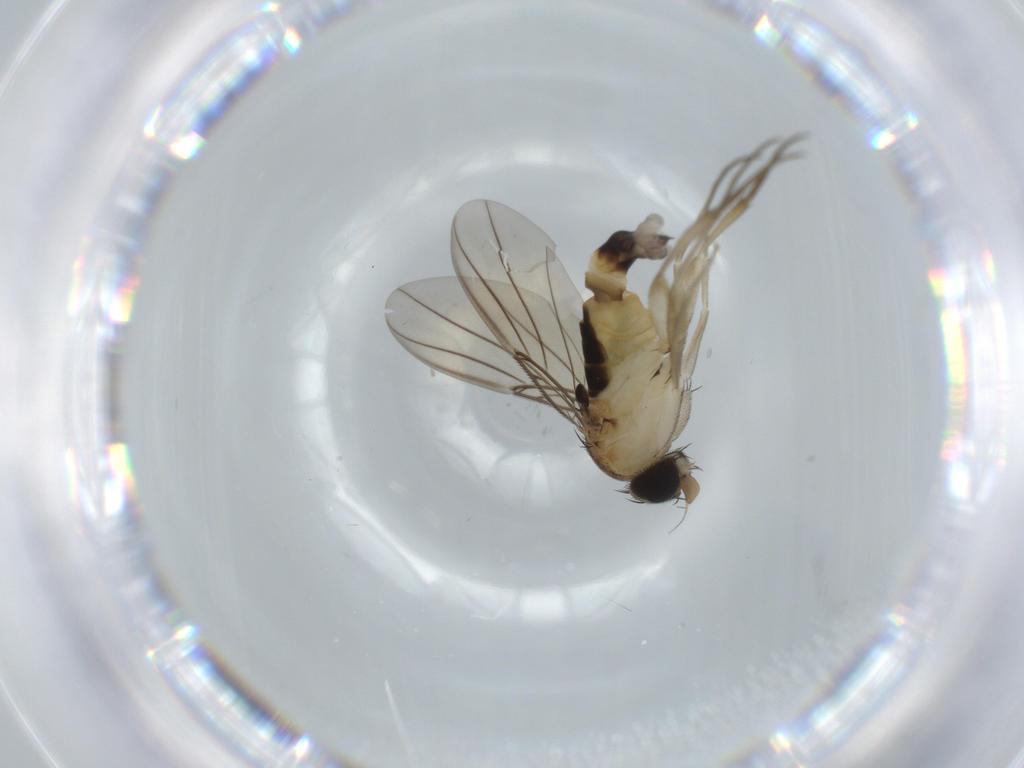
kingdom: Animalia
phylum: Arthropoda
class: Insecta
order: Diptera
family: Phoridae
